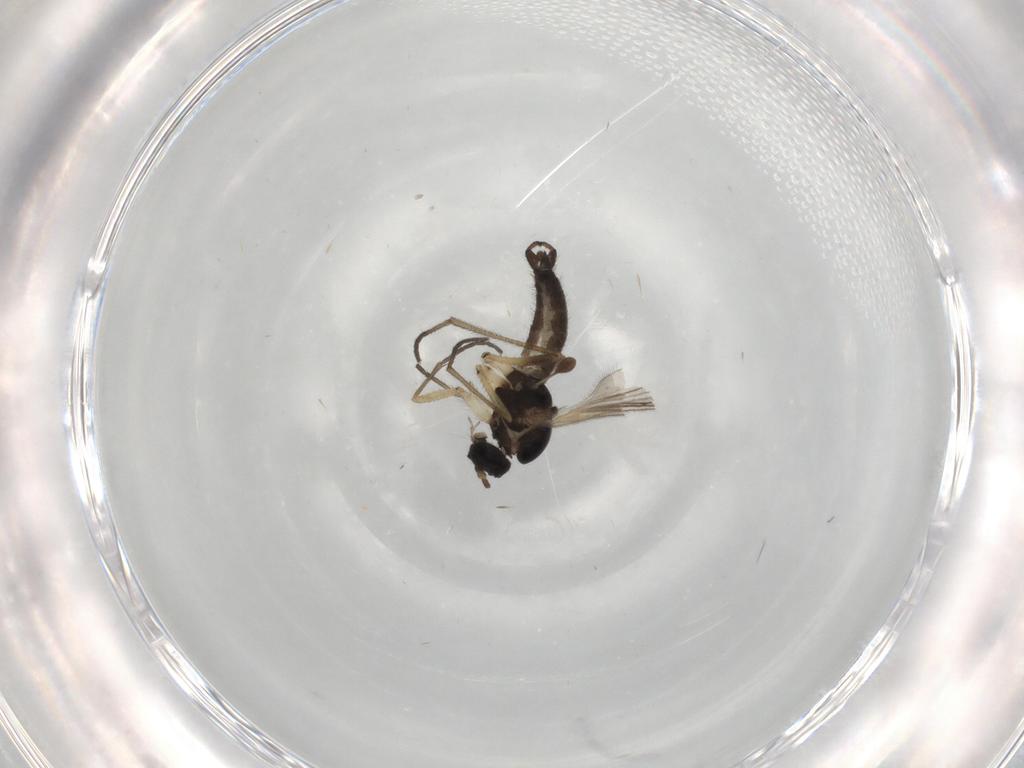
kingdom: Animalia
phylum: Arthropoda
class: Insecta
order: Diptera
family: Sciaridae
